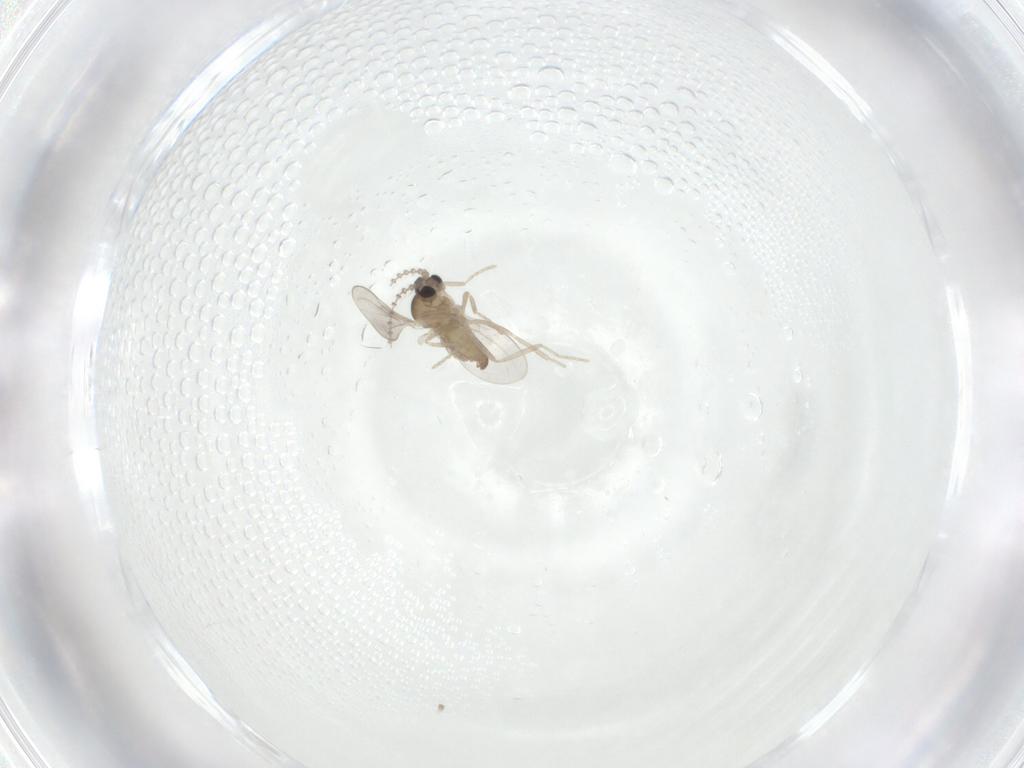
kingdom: Animalia
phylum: Arthropoda
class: Insecta
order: Diptera
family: Cecidomyiidae
